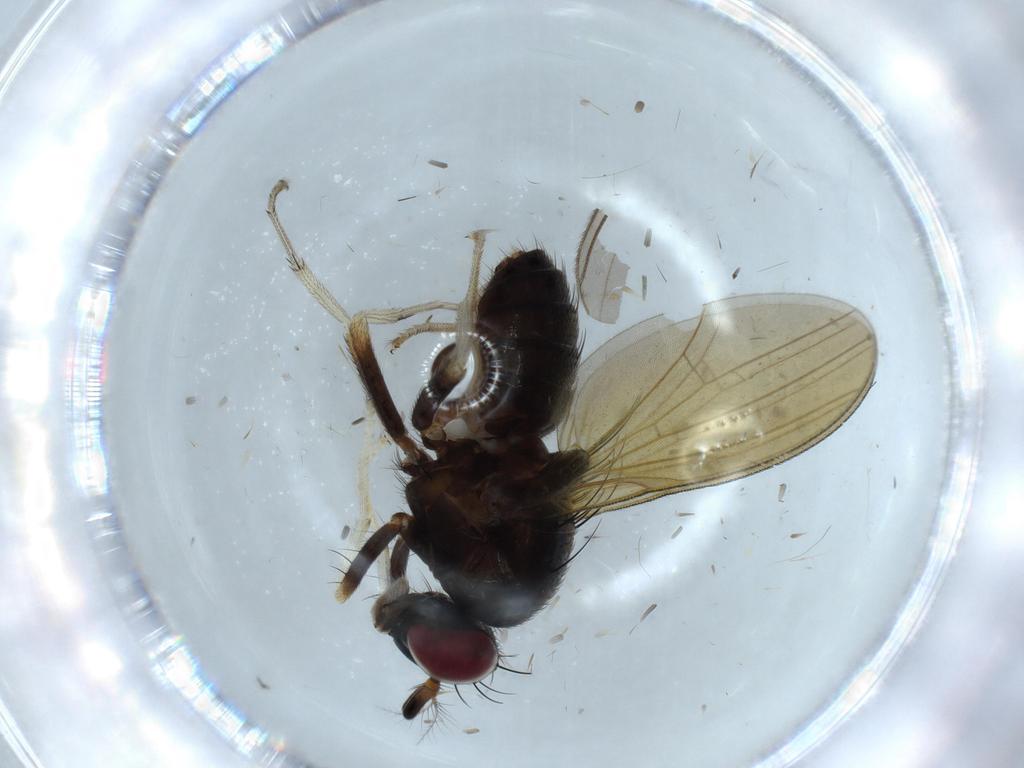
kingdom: Animalia
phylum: Arthropoda
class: Insecta
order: Diptera
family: Lauxaniidae
